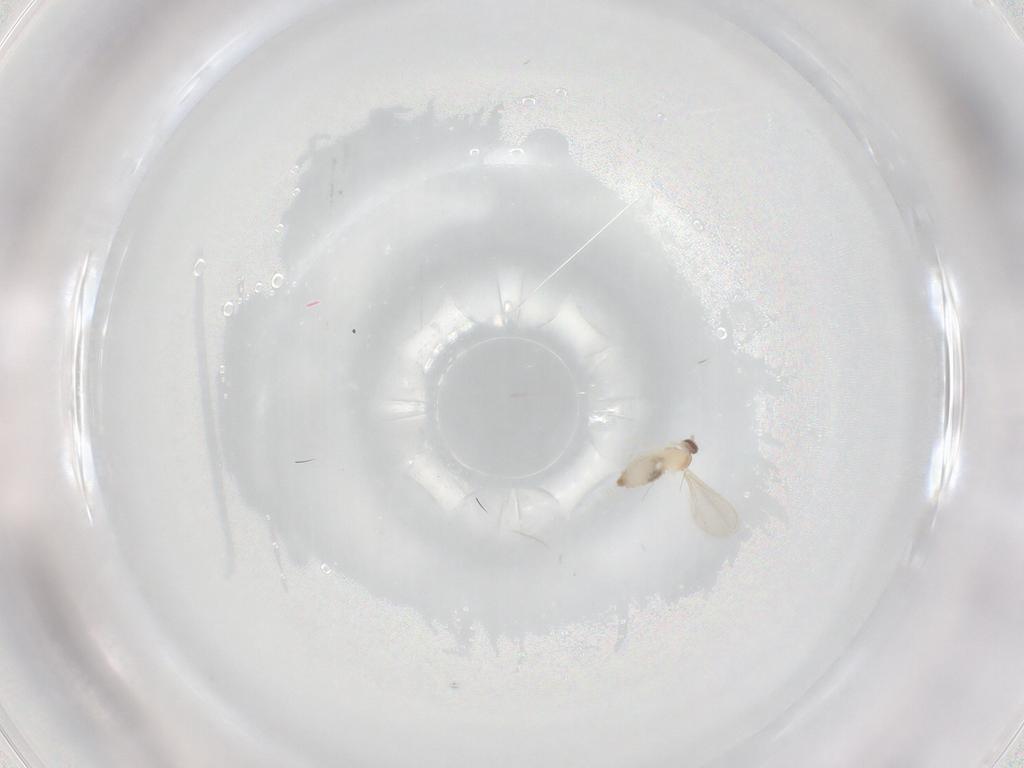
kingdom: Animalia
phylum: Arthropoda
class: Insecta
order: Diptera
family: Cecidomyiidae
